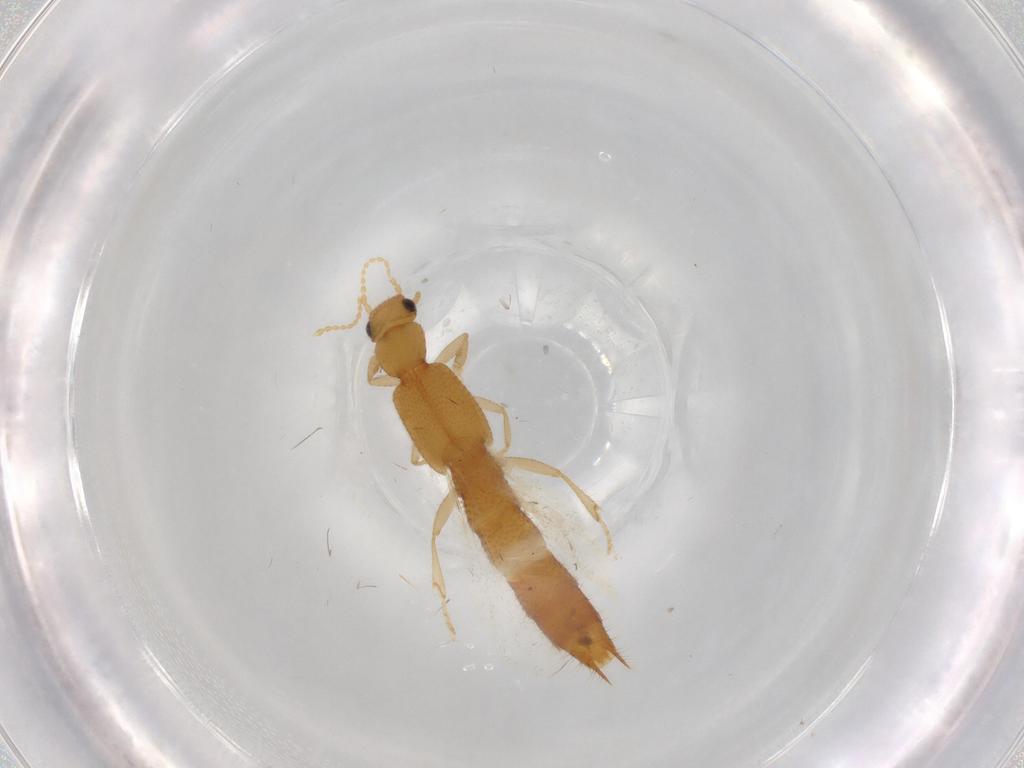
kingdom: Animalia
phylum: Arthropoda
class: Insecta
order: Coleoptera
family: Staphylinidae
